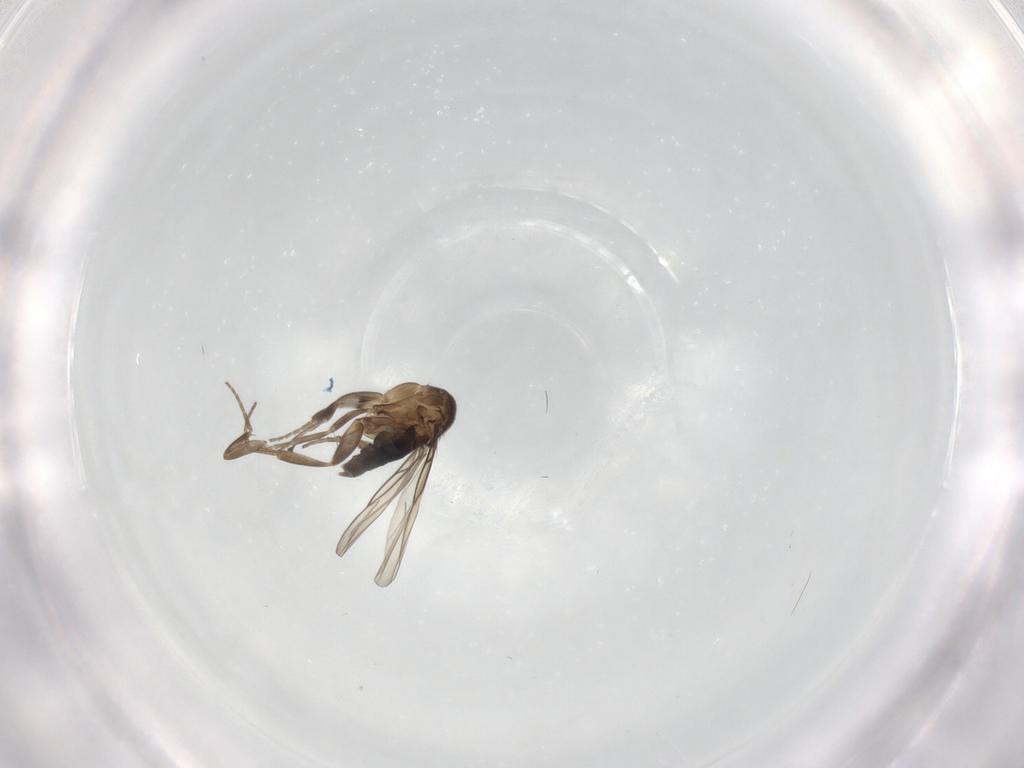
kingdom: Animalia
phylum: Arthropoda
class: Insecta
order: Diptera
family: Phoridae
